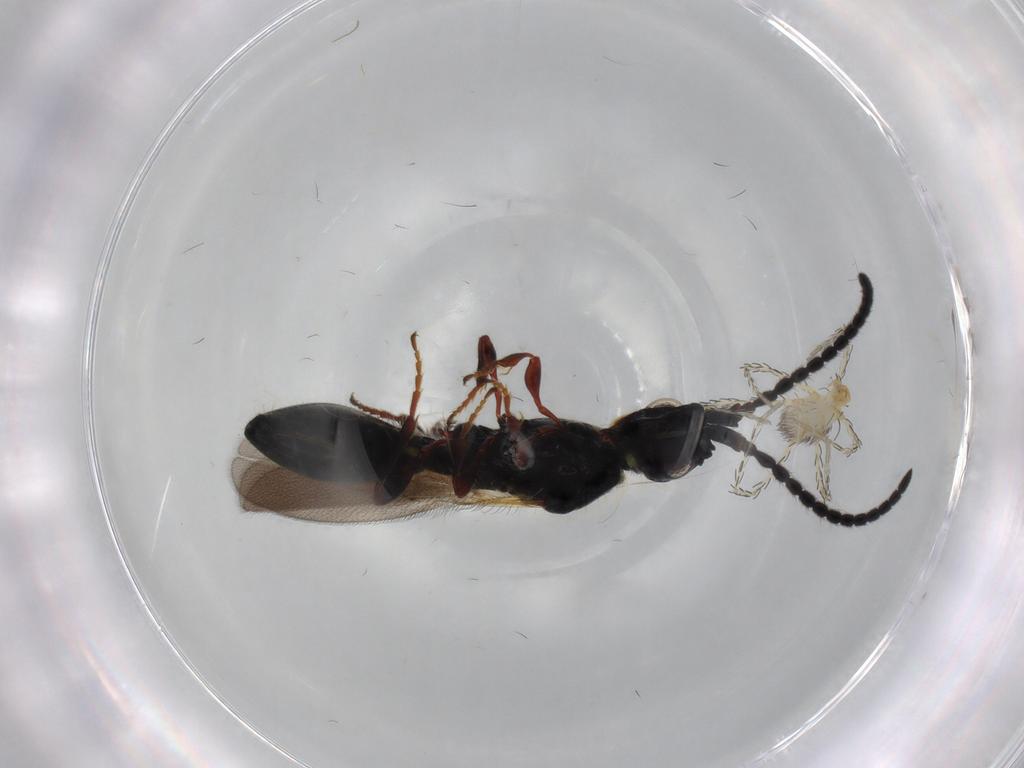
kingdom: Animalia
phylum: Arthropoda
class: Insecta
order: Hymenoptera
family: Diapriidae
